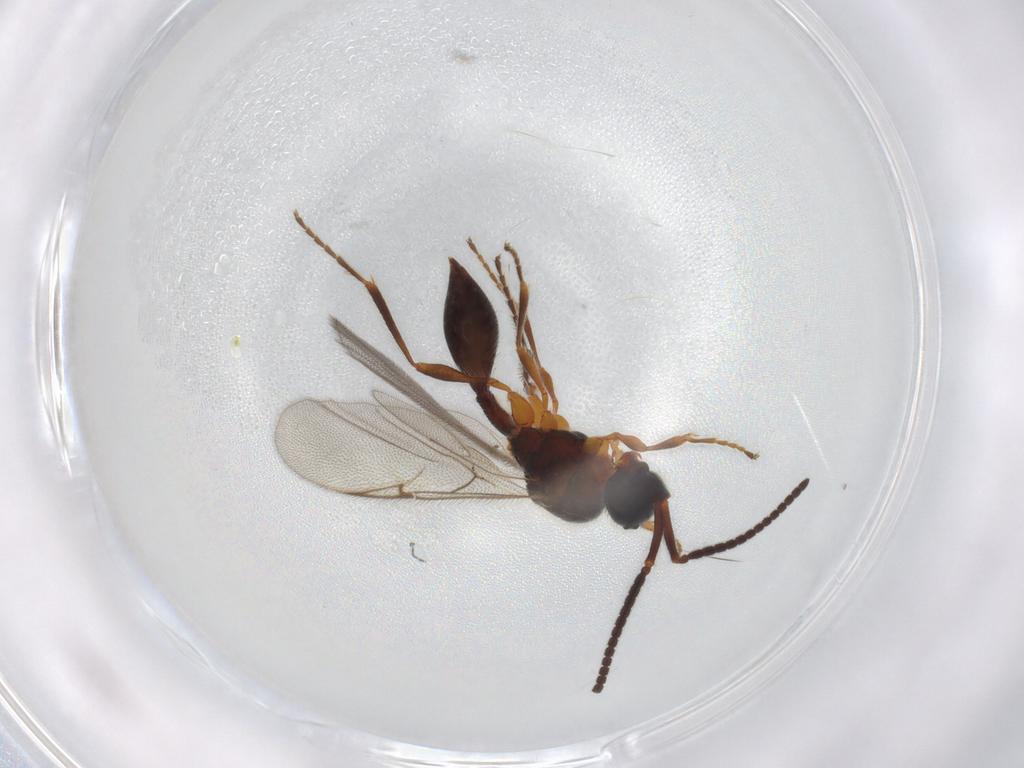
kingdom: Animalia
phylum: Arthropoda
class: Insecta
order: Hymenoptera
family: Diapriidae
